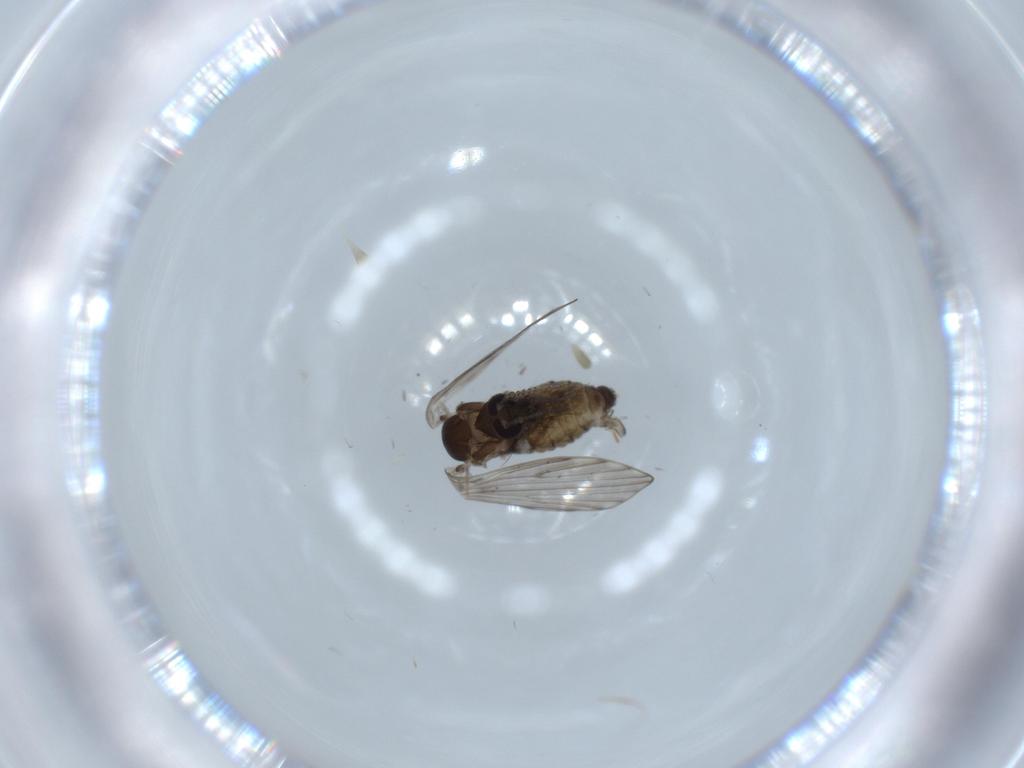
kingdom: Animalia
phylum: Arthropoda
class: Insecta
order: Diptera
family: Psychodidae
